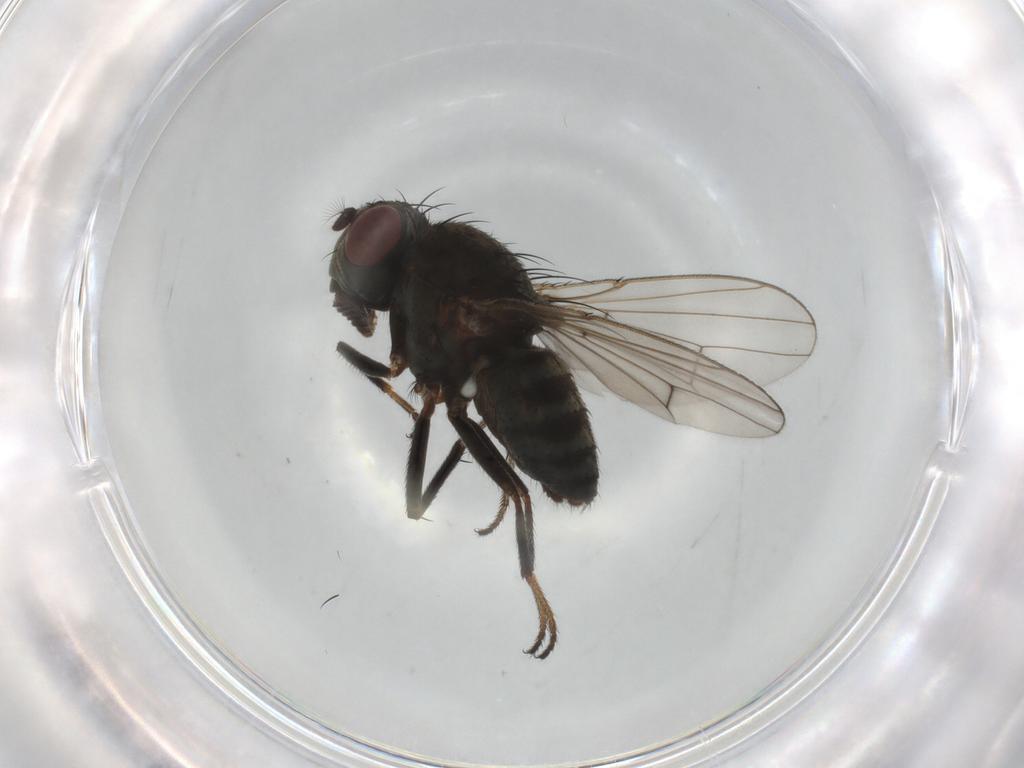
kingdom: Animalia
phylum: Arthropoda
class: Insecta
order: Diptera
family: Ephydridae
